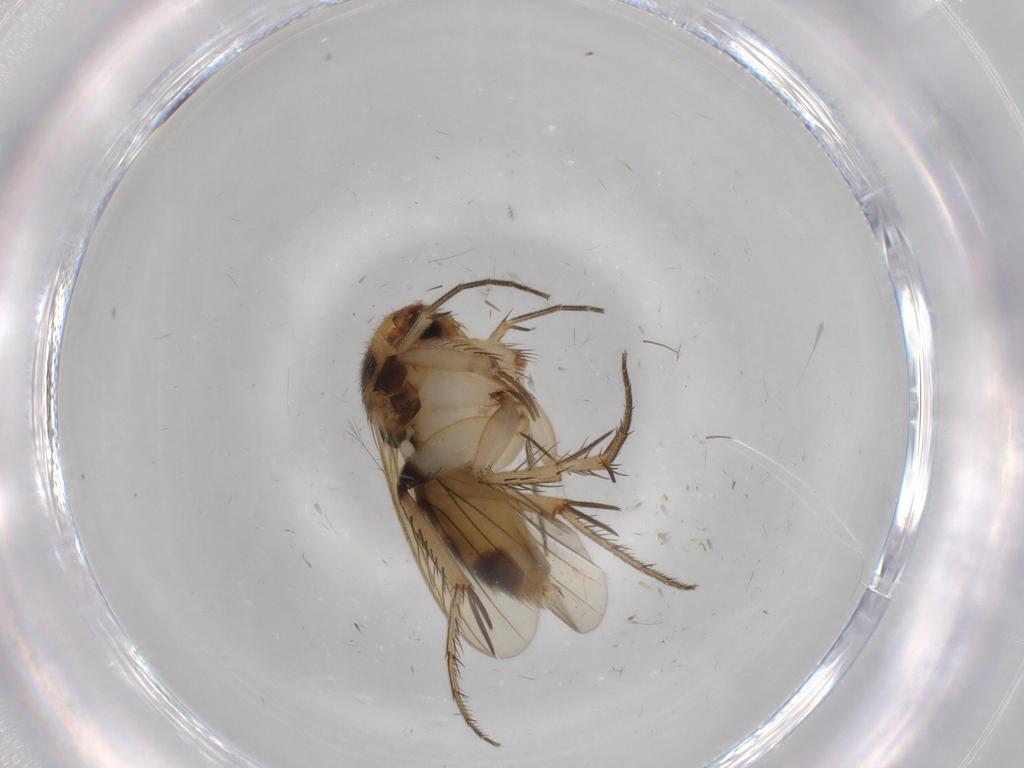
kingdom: Animalia
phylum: Arthropoda
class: Insecta
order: Diptera
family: Mycetophilidae
